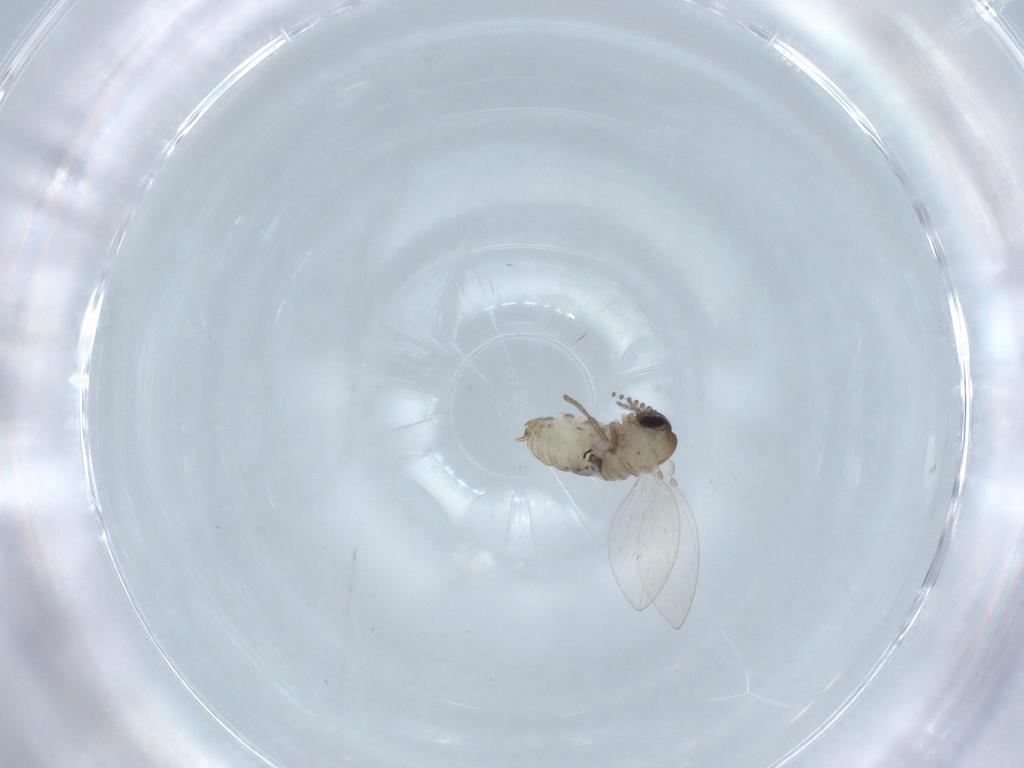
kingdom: Animalia
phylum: Arthropoda
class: Insecta
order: Diptera
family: Psychodidae
